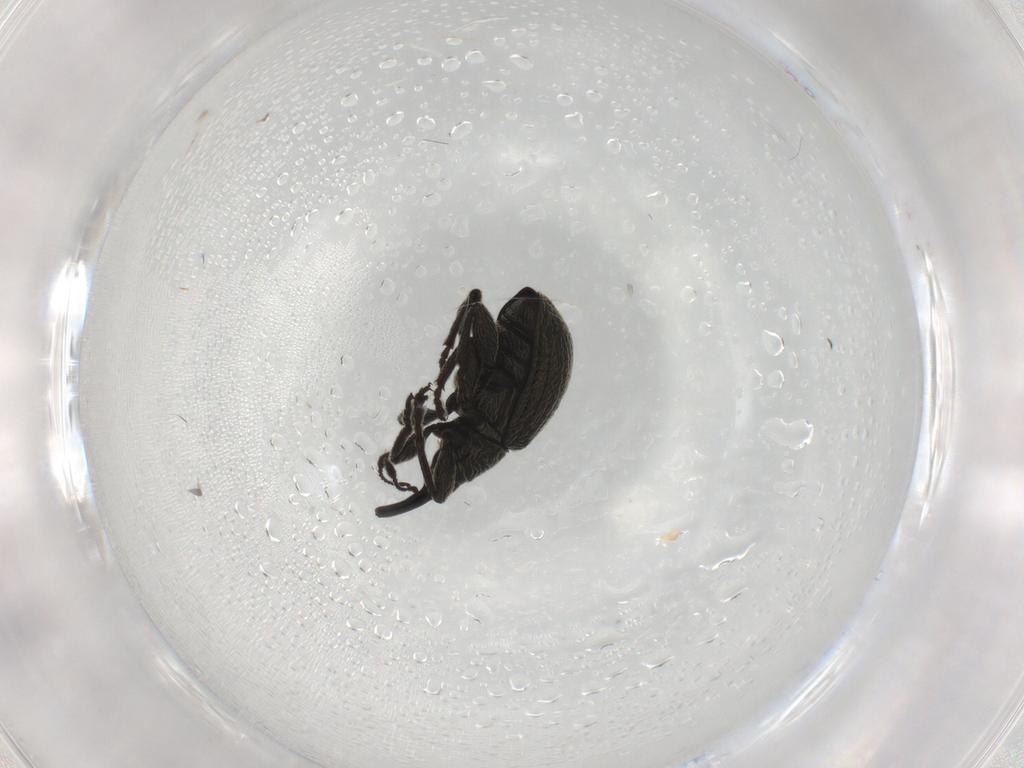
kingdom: Animalia
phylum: Arthropoda
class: Insecta
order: Coleoptera
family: Brentidae
